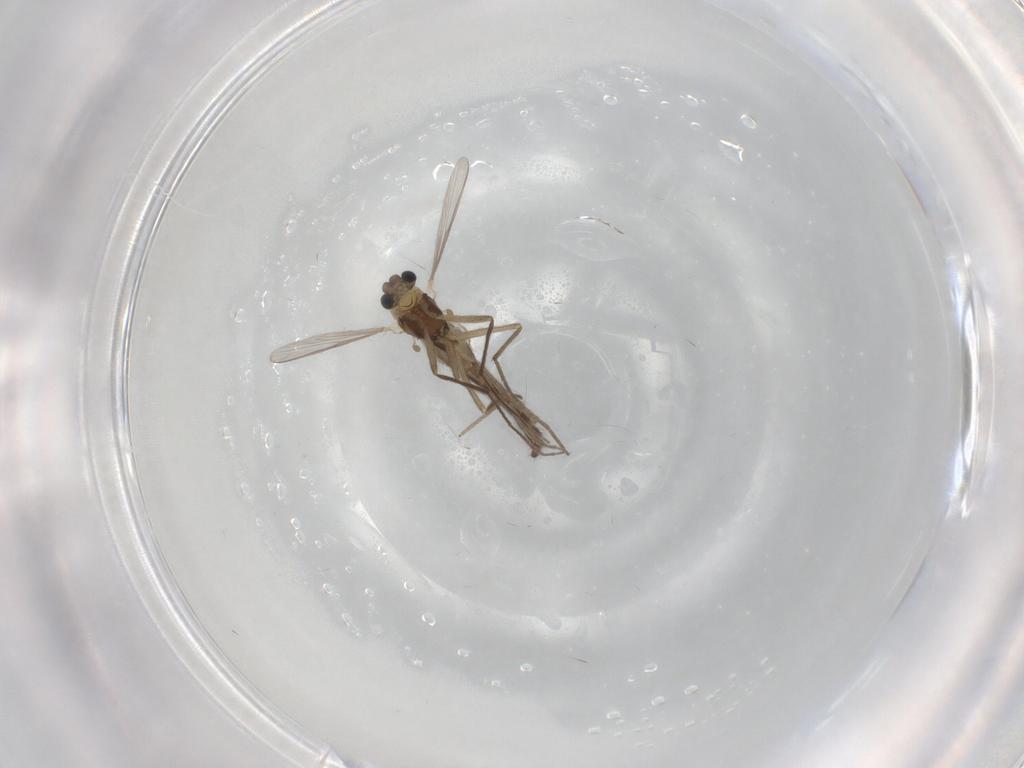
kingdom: Animalia
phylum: Arthropoda
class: Insecta
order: Diptera
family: Chironomidae
